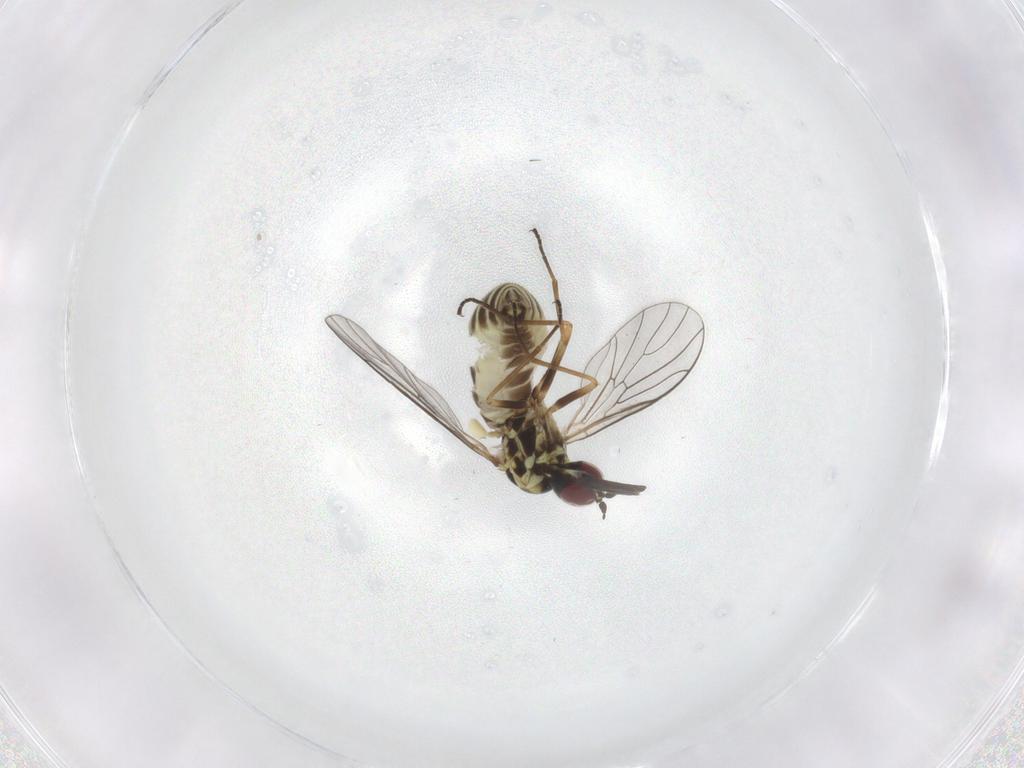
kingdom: Animalia
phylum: Arthropoda
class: Insecta
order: Diptera
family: Bombyliidae
